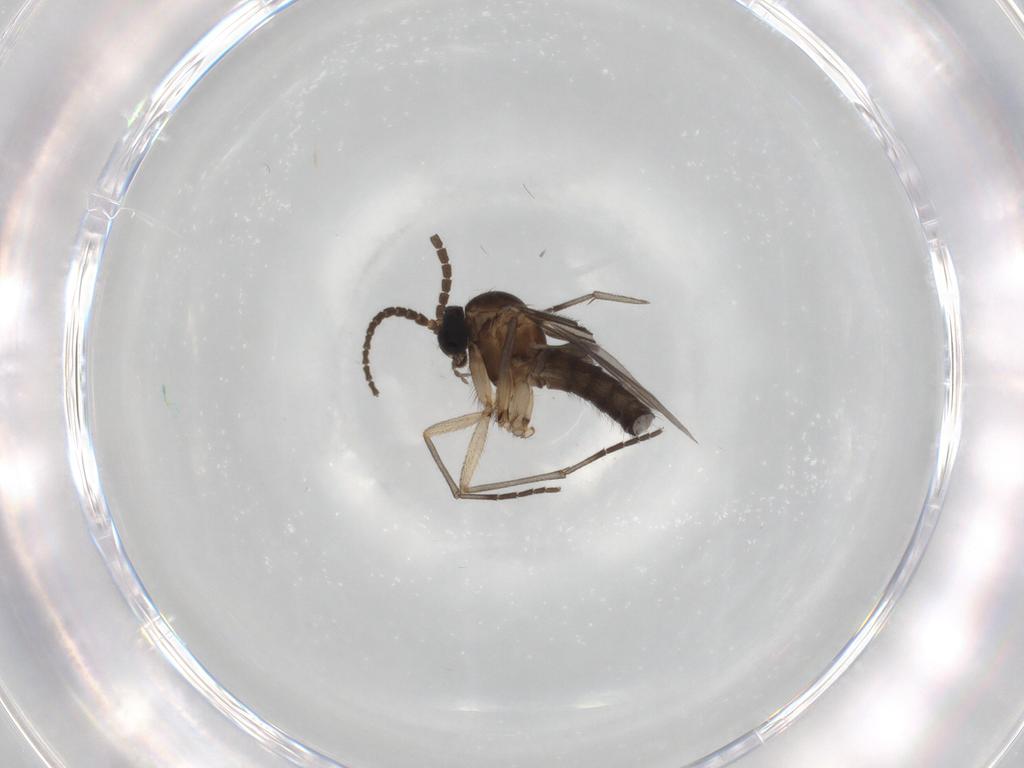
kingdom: Animalia
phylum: Arthropoda
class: Insecta
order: Diptera
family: Sciaridae
